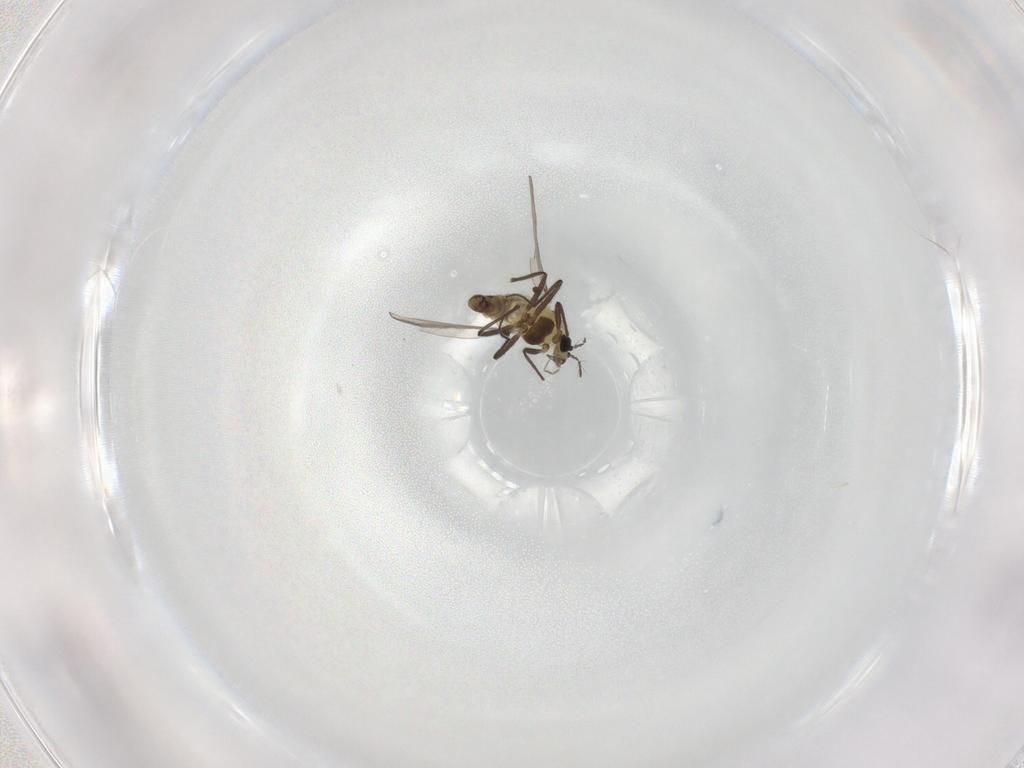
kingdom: Animalia
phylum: Arthropoda
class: Insecta
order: Diptera
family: Chironomidae
